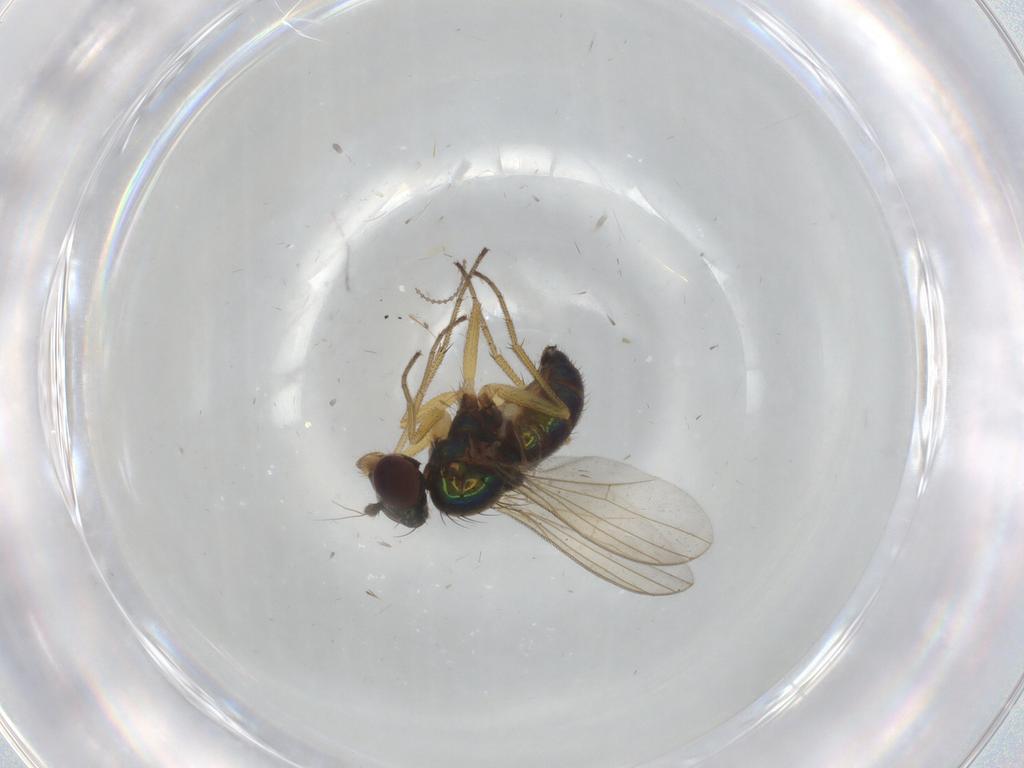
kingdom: Animalia
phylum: Arthropoda
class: Insecta
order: Diptera
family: Dolichopodidae
